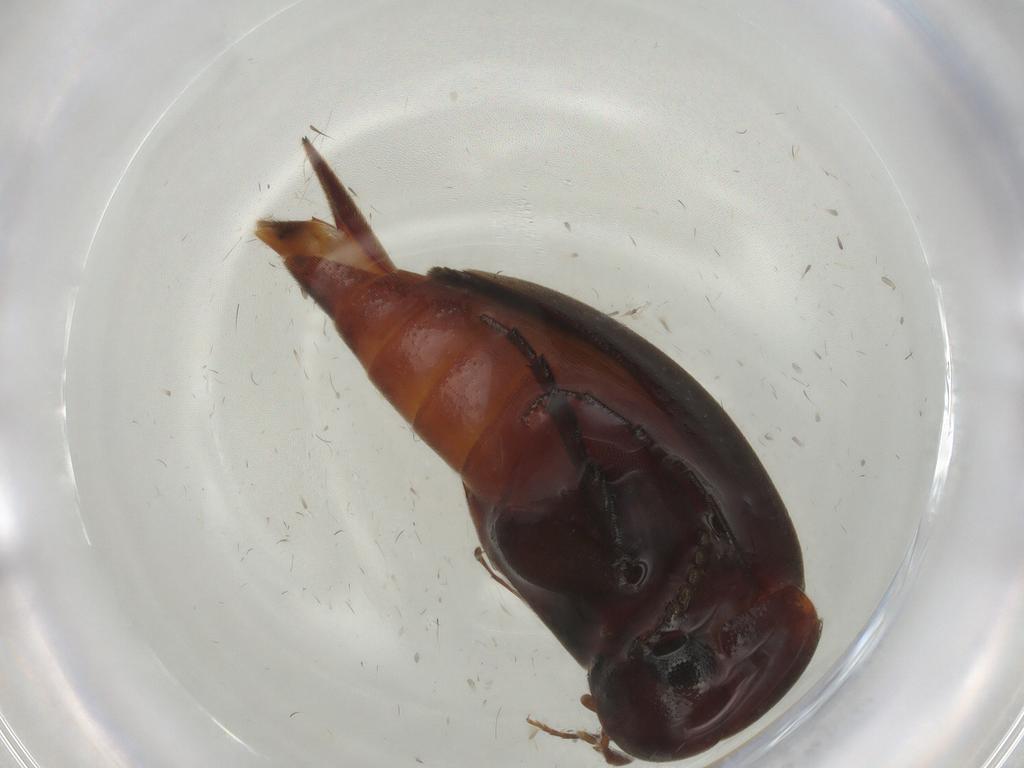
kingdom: Animalia
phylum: Arthropoda
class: Insecta
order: Coleoptera
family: Mordellidae
